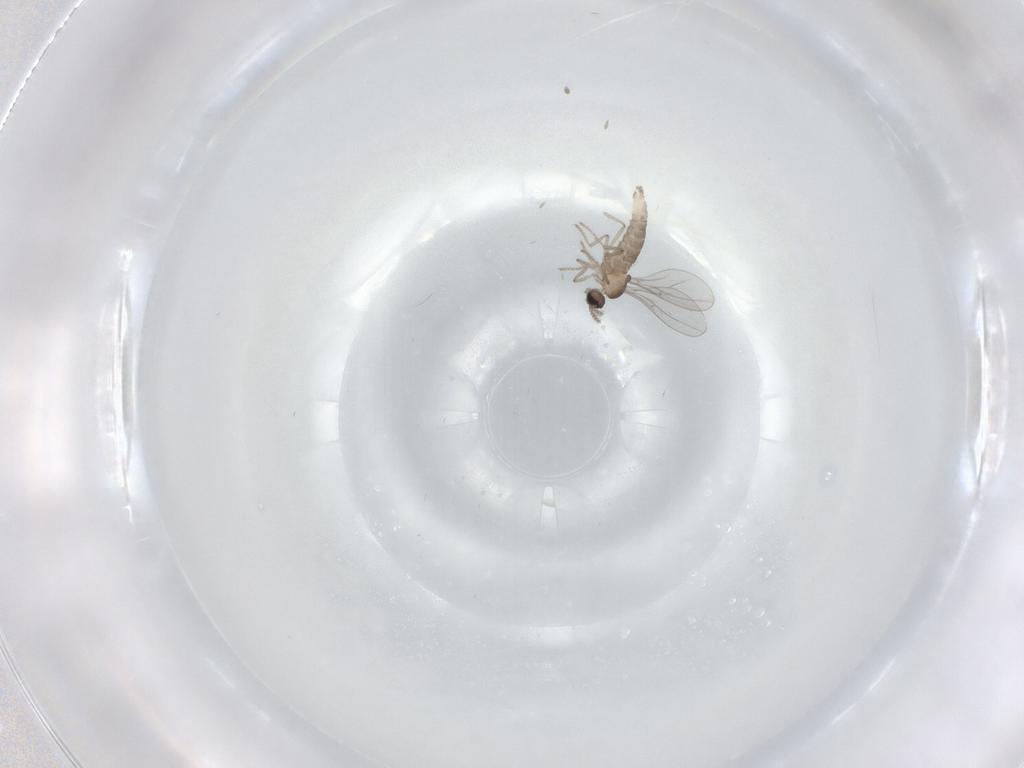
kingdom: Animalia
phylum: Arthropoda
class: Insecta
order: Diptera
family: Cecidomyiidae
